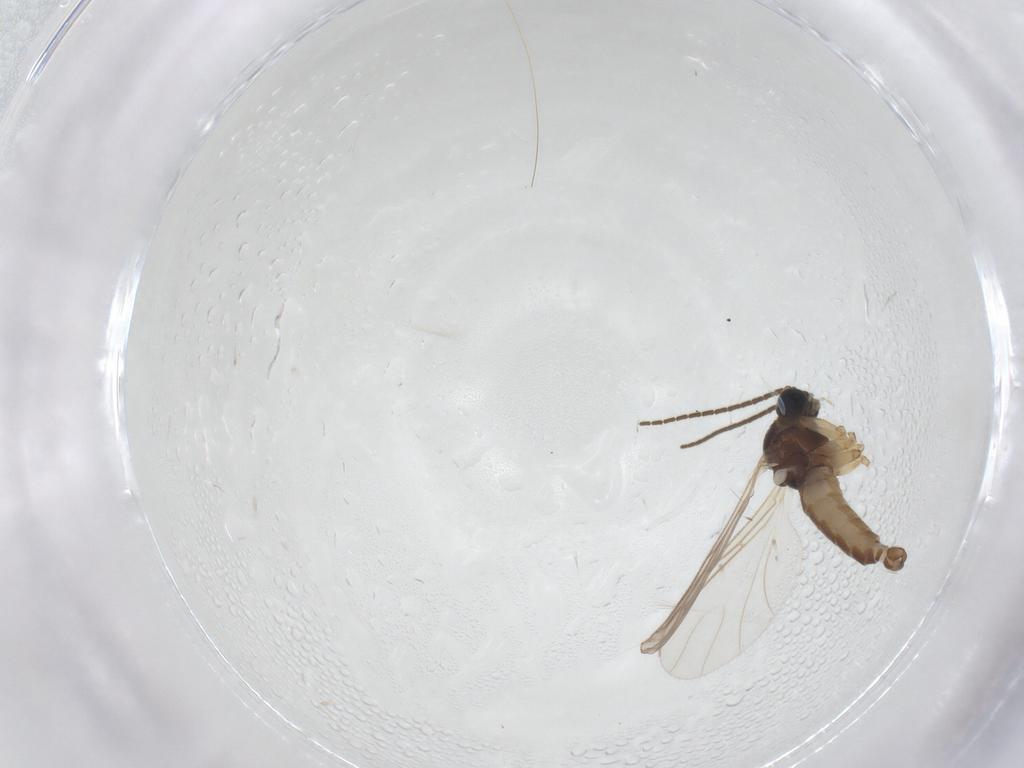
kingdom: Animalia
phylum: Arthropoda
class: Insecta
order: Diptera
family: Sciaridae
